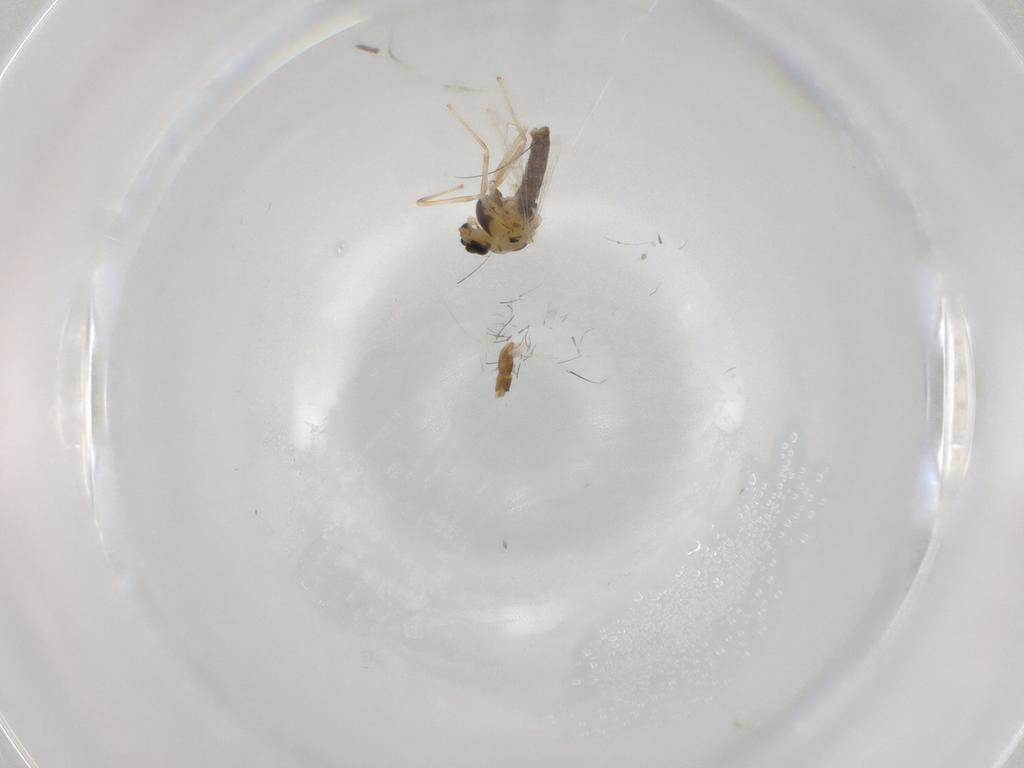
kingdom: Animalia
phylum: Arthropoda
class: Insecta
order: Diptera
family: Chironomidae
